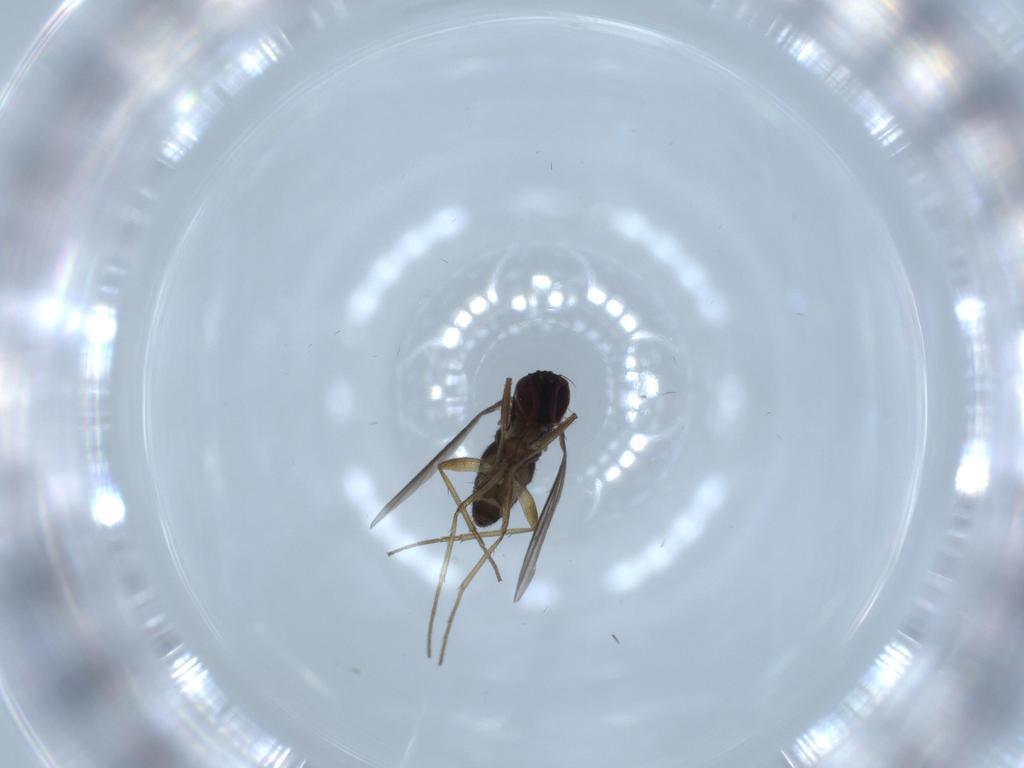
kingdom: Animalia
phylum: Arthropoda
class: Insecta
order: Diptera
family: Dolichopodidae
